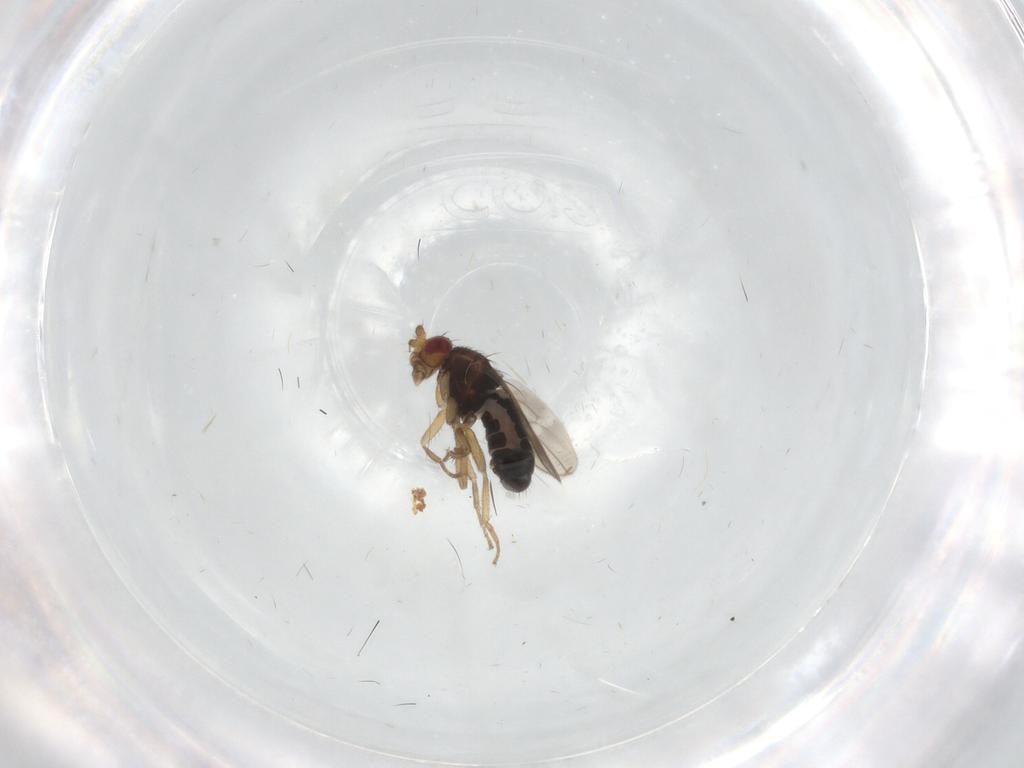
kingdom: Animalia
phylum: Arthropoda
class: Insecta
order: Diptera
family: Sphaeroceridae
